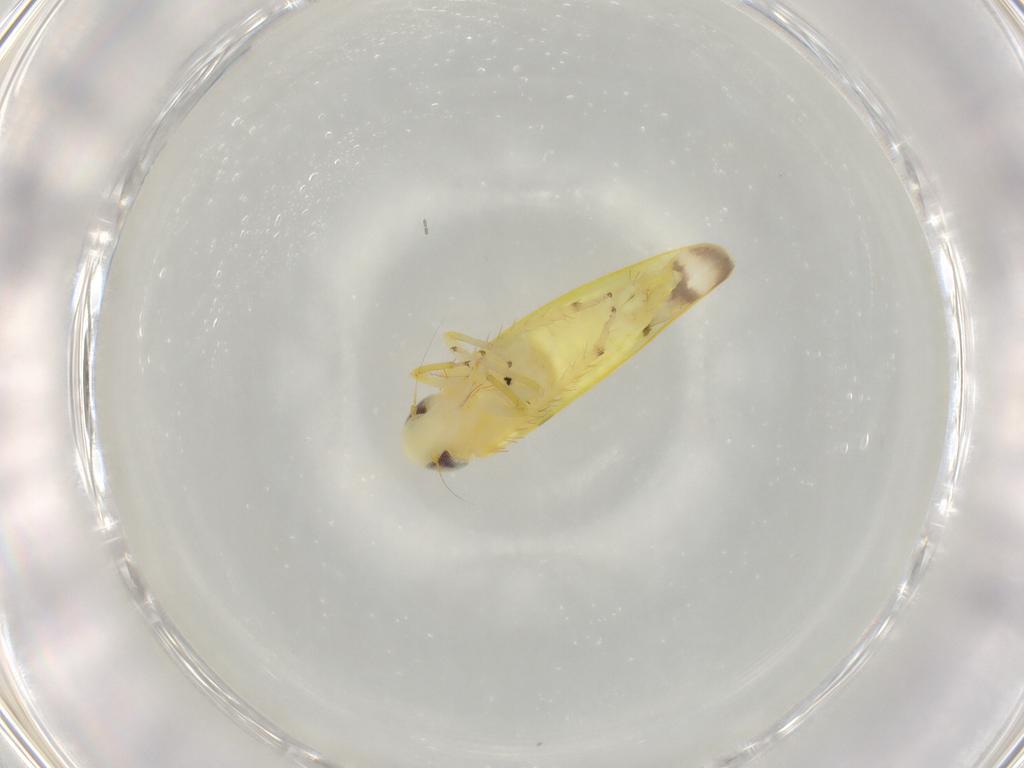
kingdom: Animalia
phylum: Arthropoda
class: Insecta
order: Hemiptera
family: Cicadellidae
